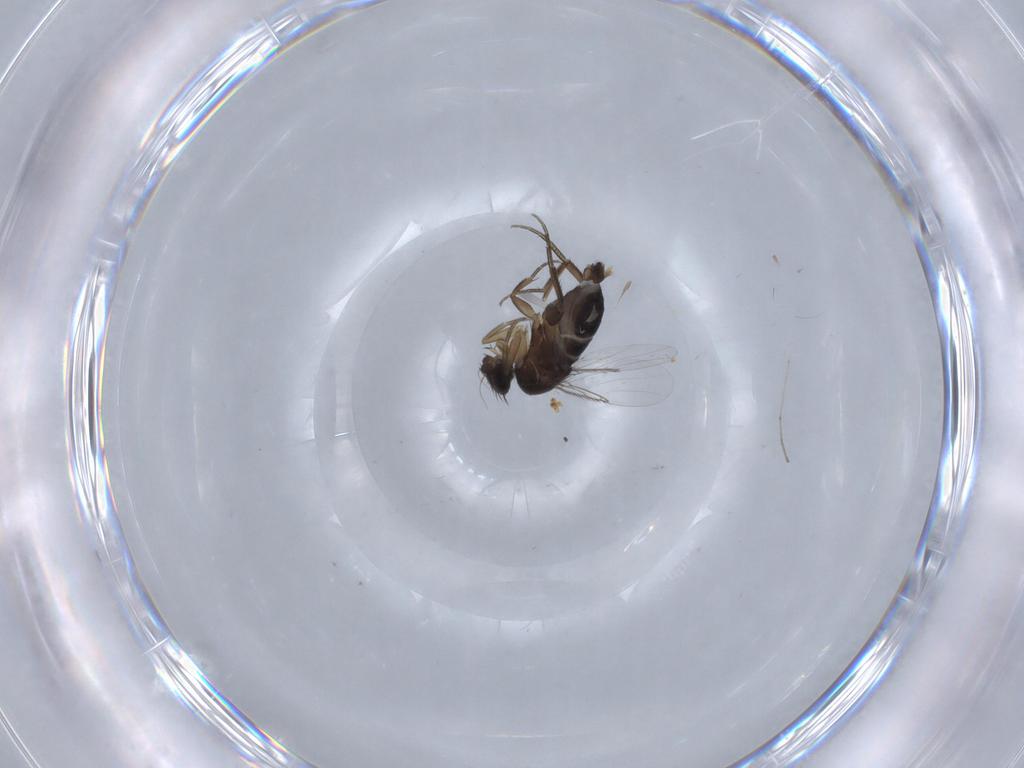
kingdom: Animalia
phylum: Arthropoda
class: Insecta
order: Diptera
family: Phoridae
